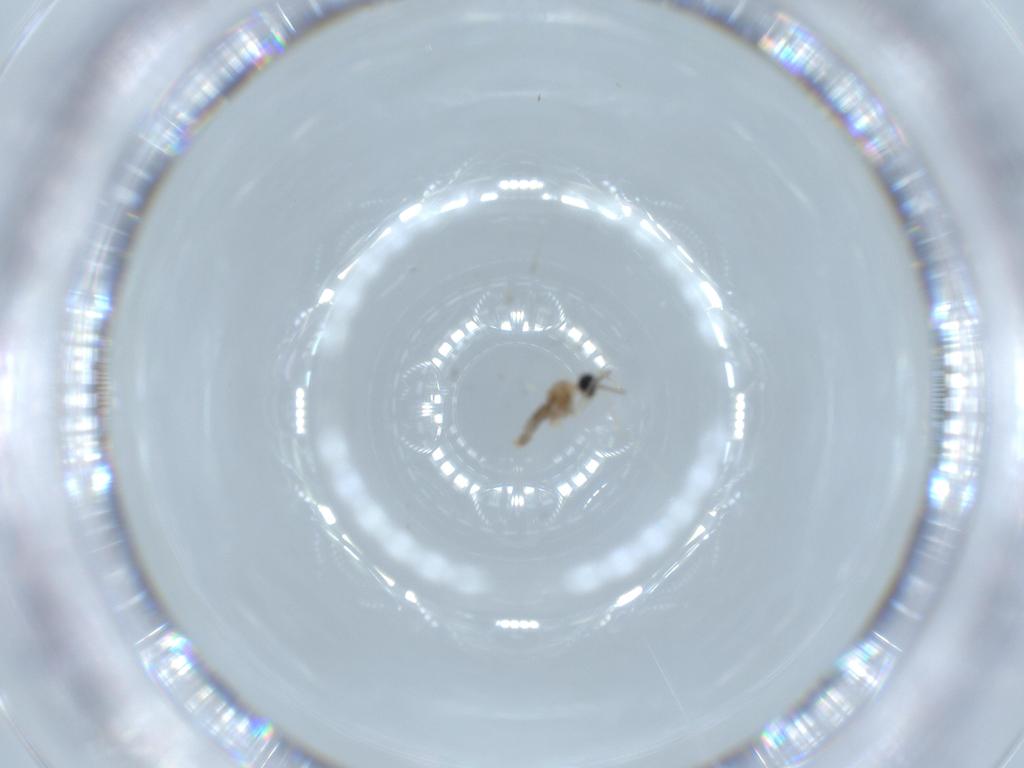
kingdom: Animalia
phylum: Arthropoda
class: Insecta
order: Diptera
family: Cecidomyiidae
